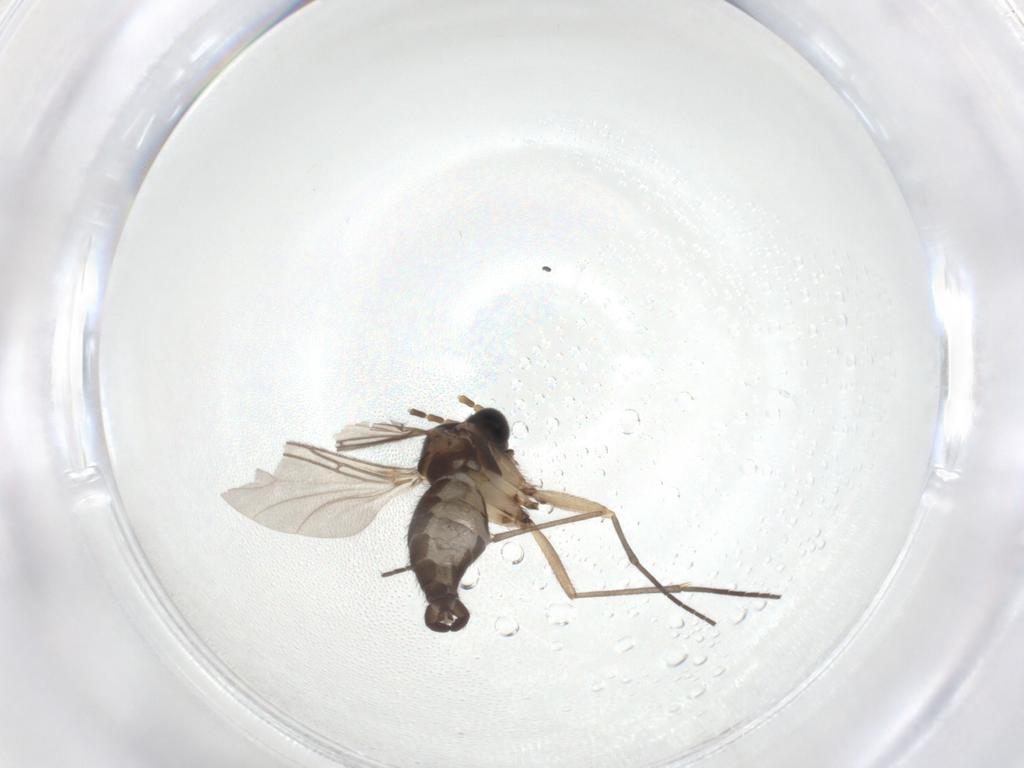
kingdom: Animalia
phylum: Arthropoda
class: Insecta
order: Diptera
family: Sciaridae
